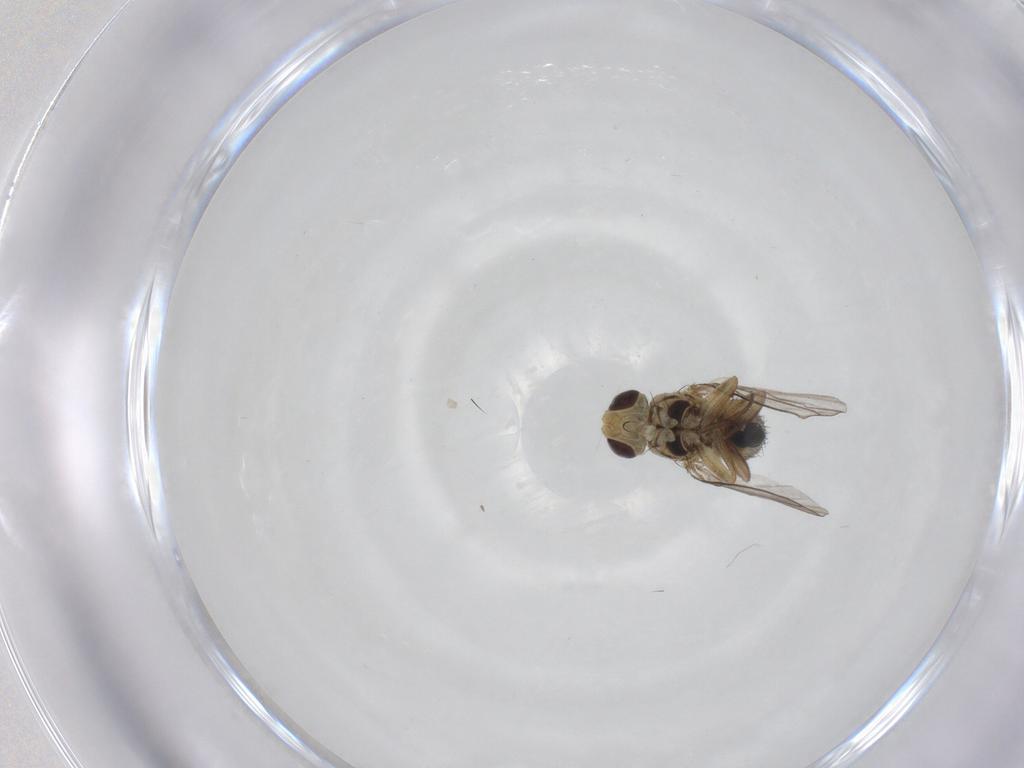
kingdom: Animalia
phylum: Arthropoda
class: Insecta
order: Diptera
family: Agromyzidae
